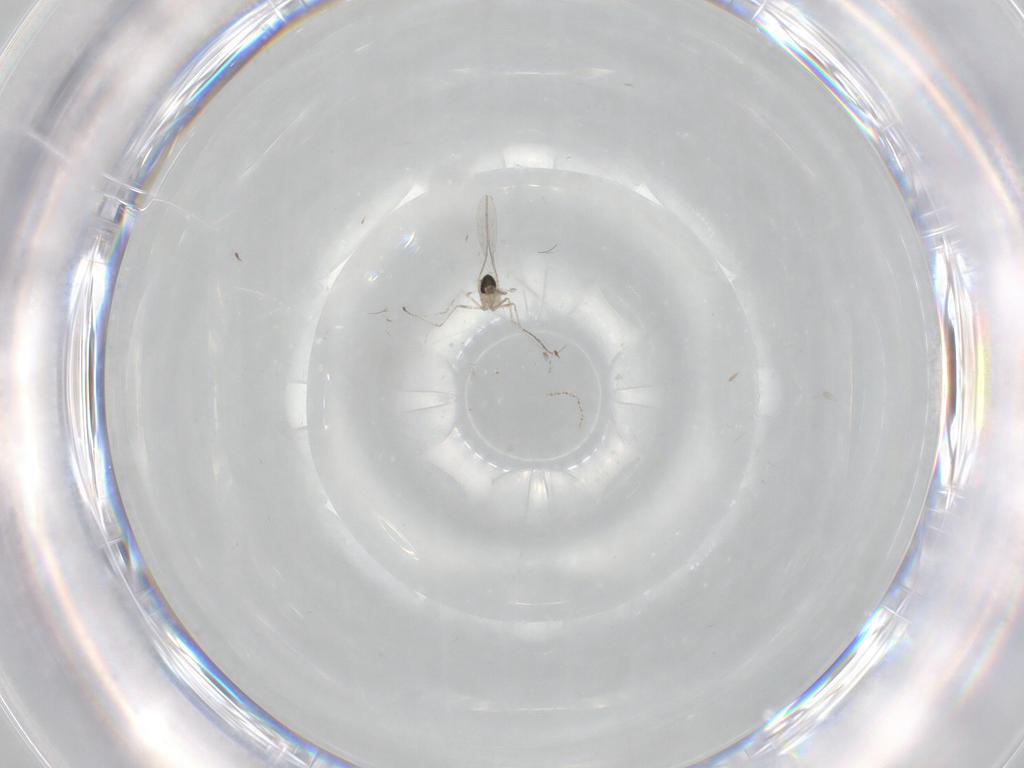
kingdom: Animalia
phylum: Arthropoda
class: Insecta
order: Diptera
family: Cecidomyiidae
